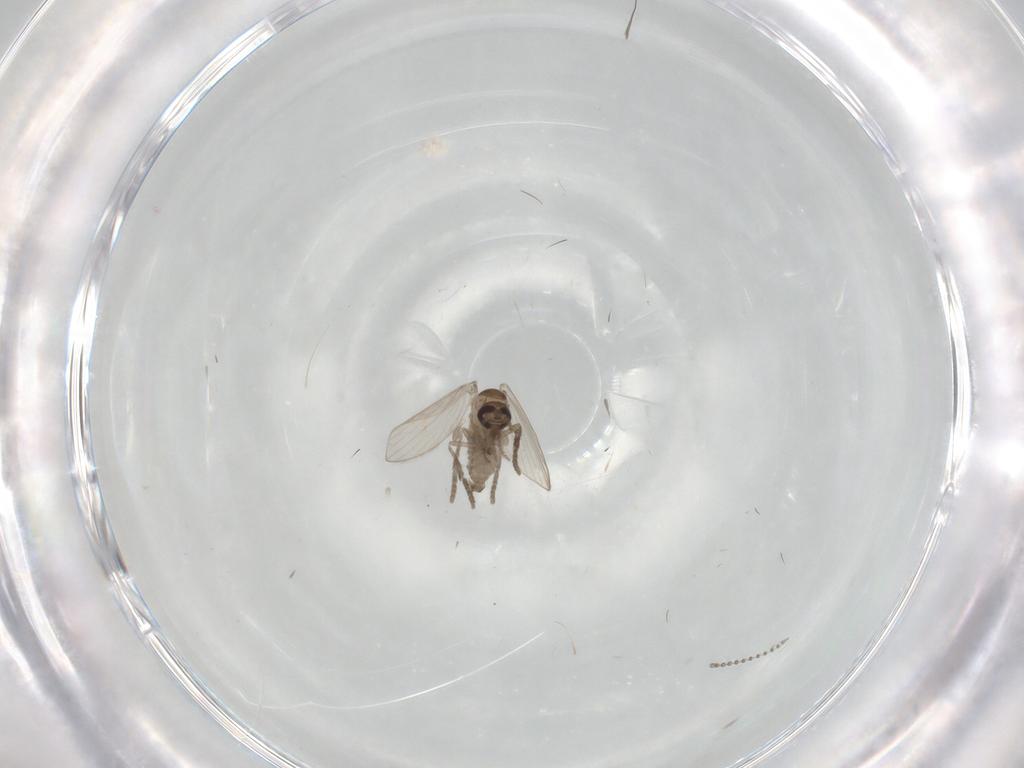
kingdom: Animalia
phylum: Arthropoda
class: Insecta
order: Diptera
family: Psychodidae
